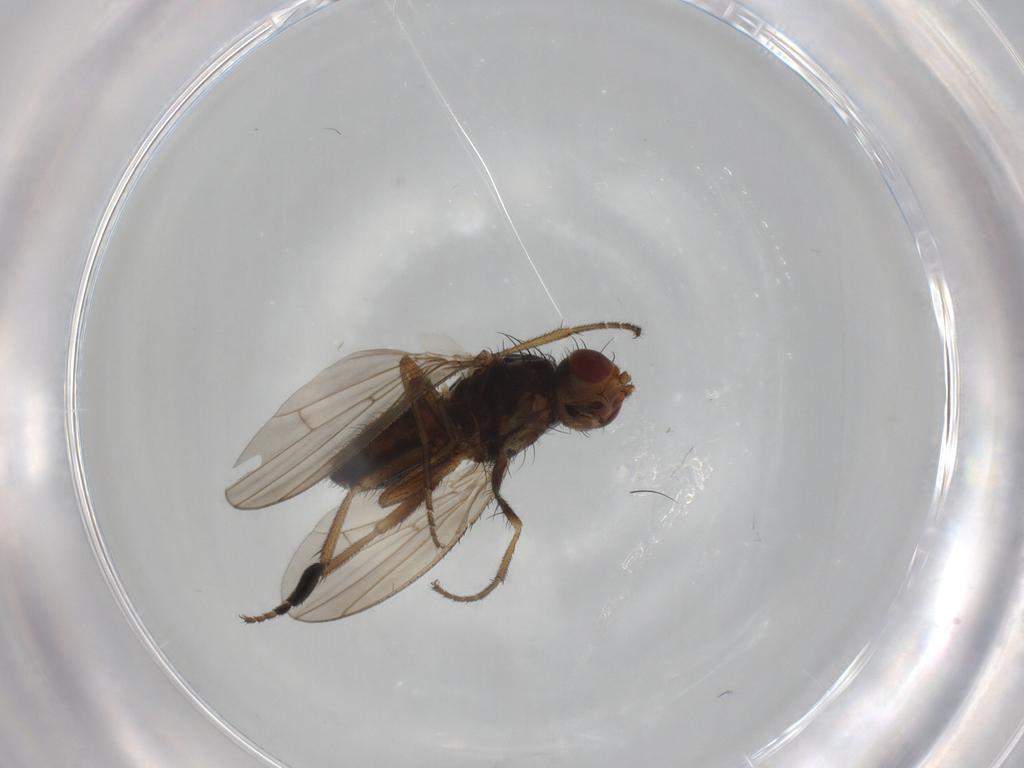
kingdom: Animalia
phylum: Arthropoda
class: Insecta
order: Diptera
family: Heleomyzidae
